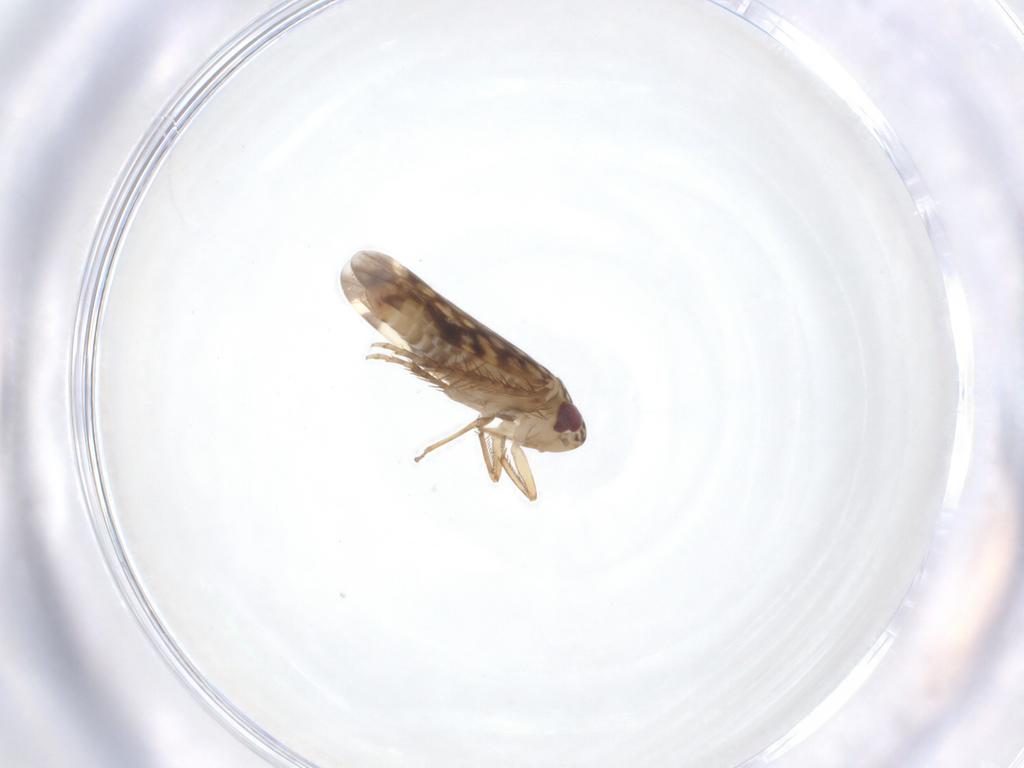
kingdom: Animalia
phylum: Arthropoda
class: Insecta
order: Hemiptera
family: Cicadellidae
